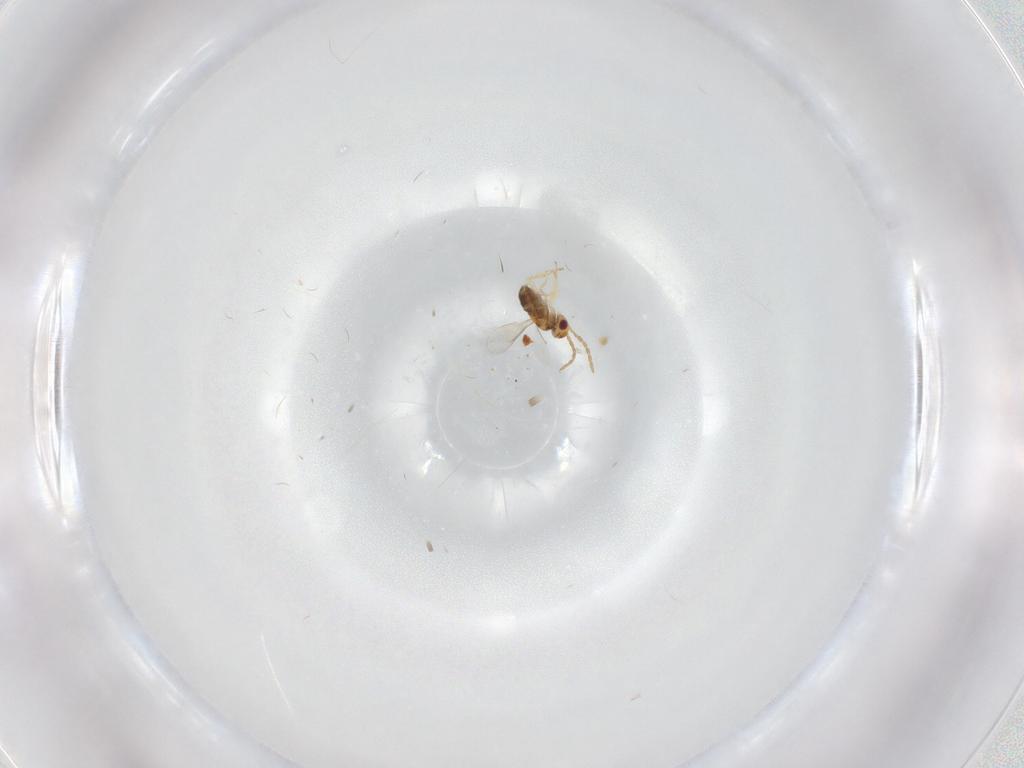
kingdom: Animalia
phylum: Arthropoda
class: Insecta
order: Hymenoptera
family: Aphelinidae
